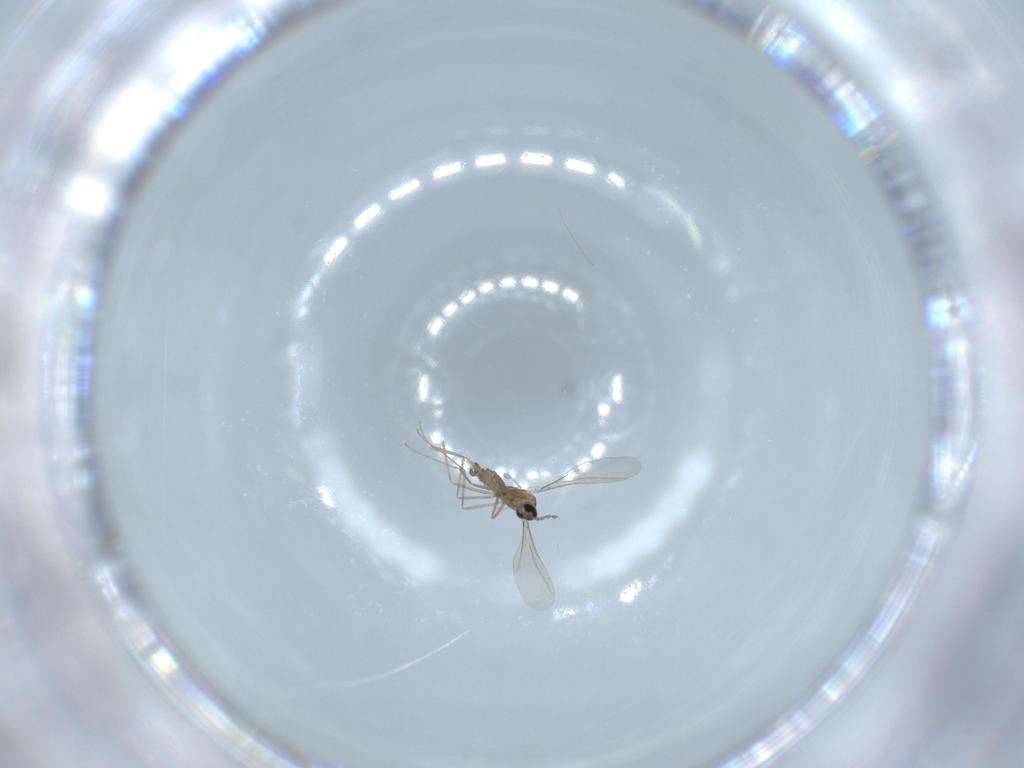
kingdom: Animalia
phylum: Arthropoda
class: Insecta
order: Diptera
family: Cecidomyiidae
